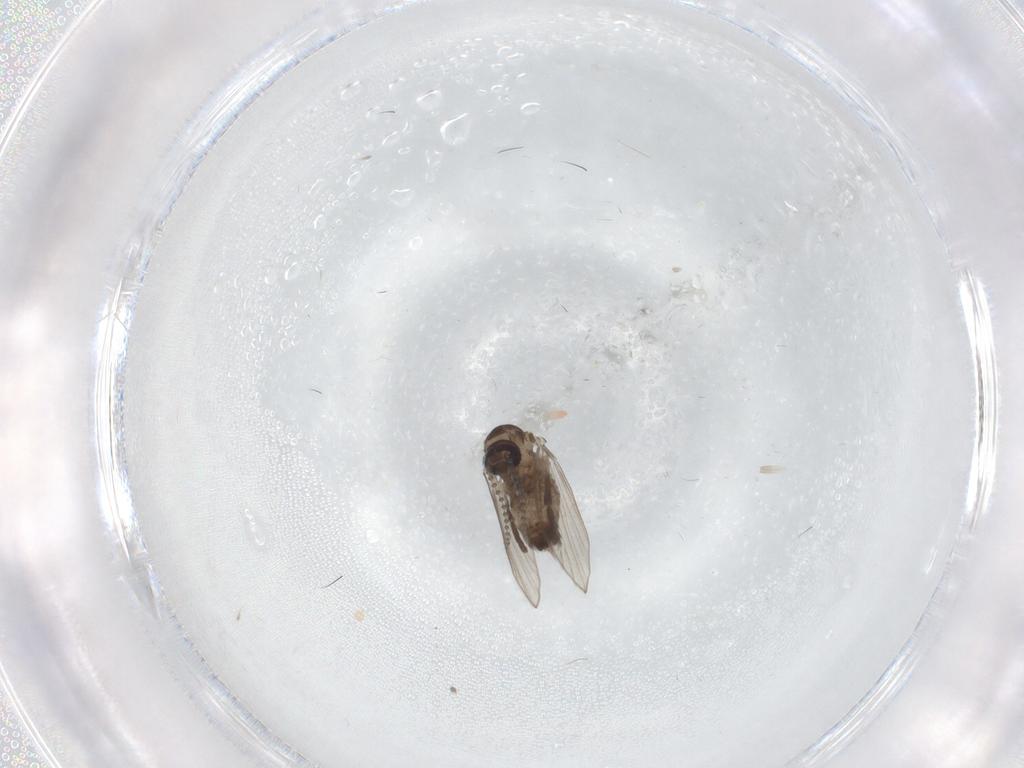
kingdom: Animalia
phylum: Arthropoda
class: Insecta
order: Diptera
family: Psychodidae
